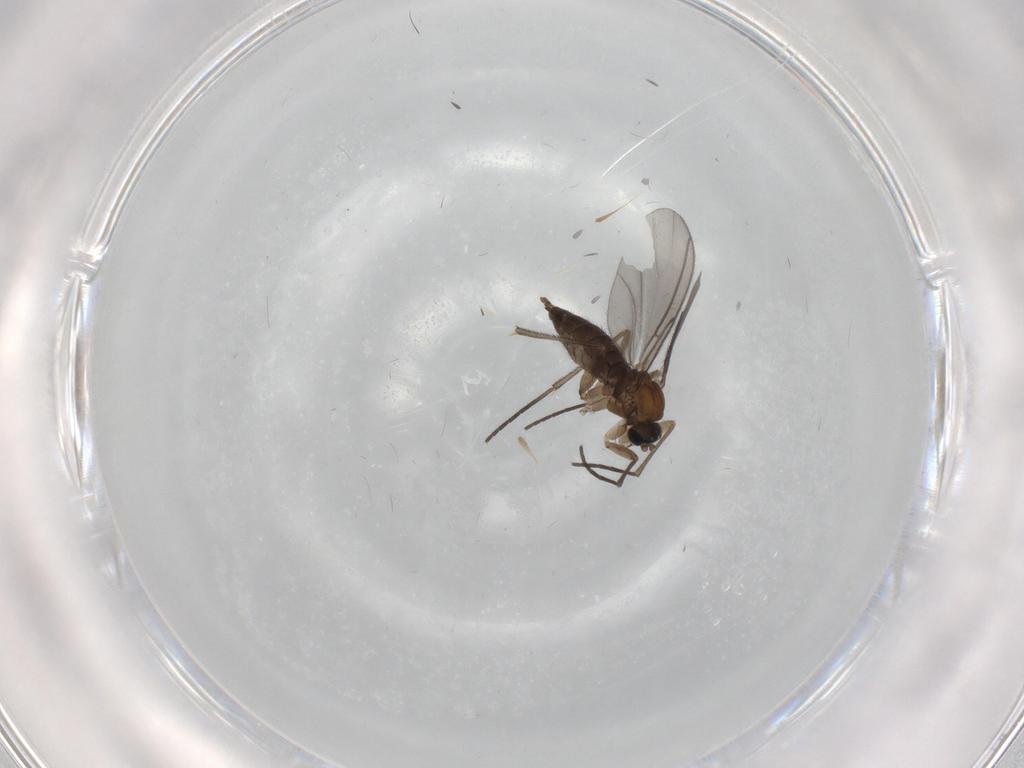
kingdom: Animalia
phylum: Arthropoda
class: Insecta
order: Diptera
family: Sciaridae
